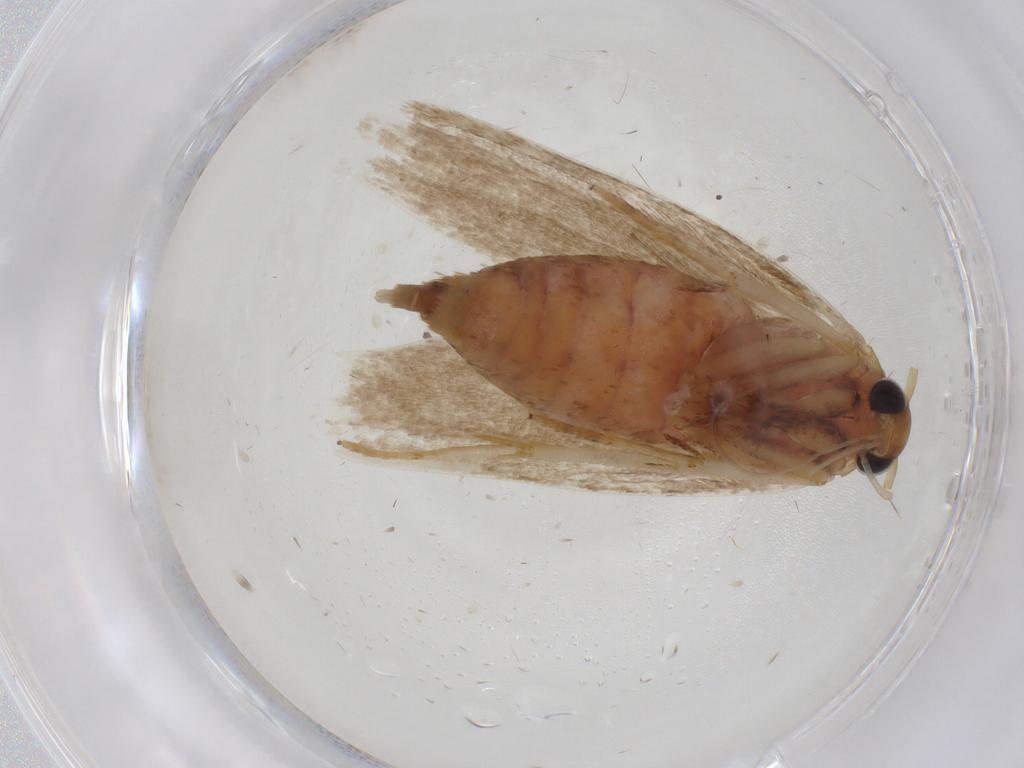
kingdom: Animalia
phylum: Arthropoda
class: Insecta
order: Lepidoptera
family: Blastobasidae
